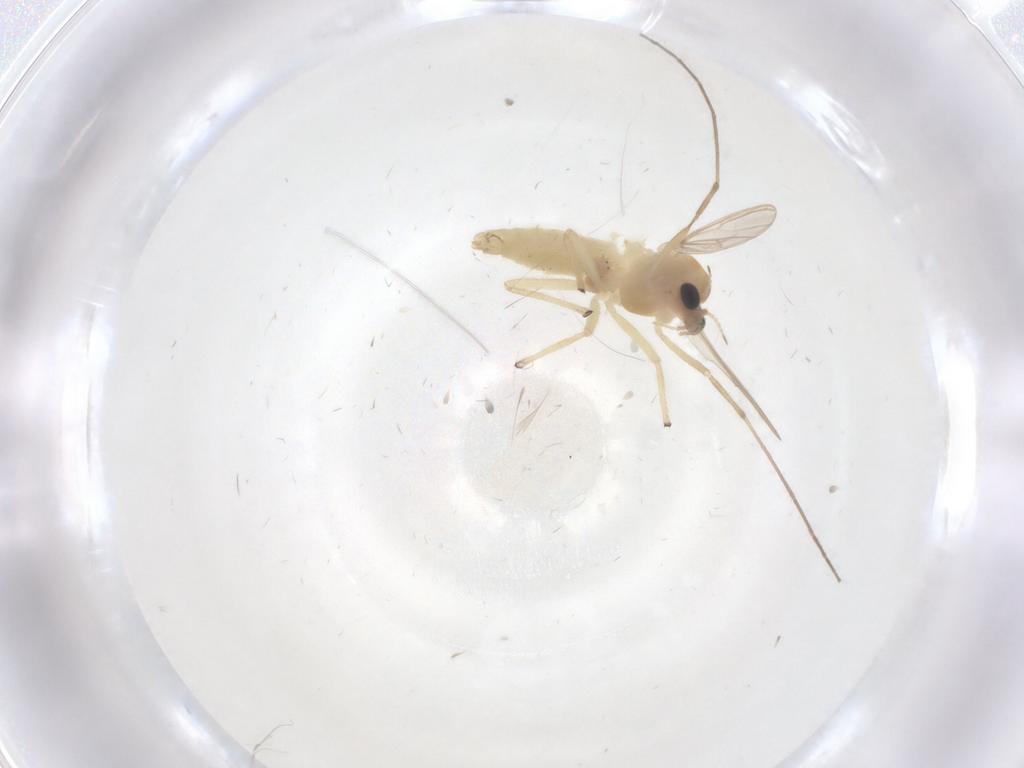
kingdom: Animalia
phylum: Arthropoda
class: Insecta
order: Diptera
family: Chironomidae
